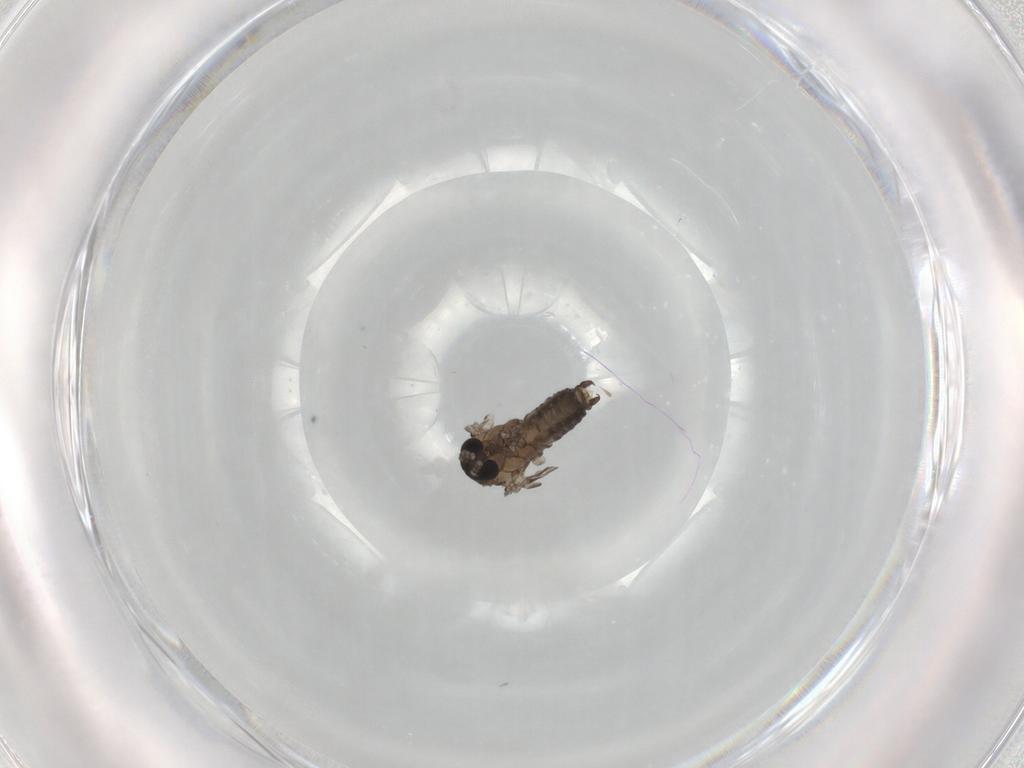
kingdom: Animalia
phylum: Arthropoda
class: Insecta
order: Diptera
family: Psychodidae
